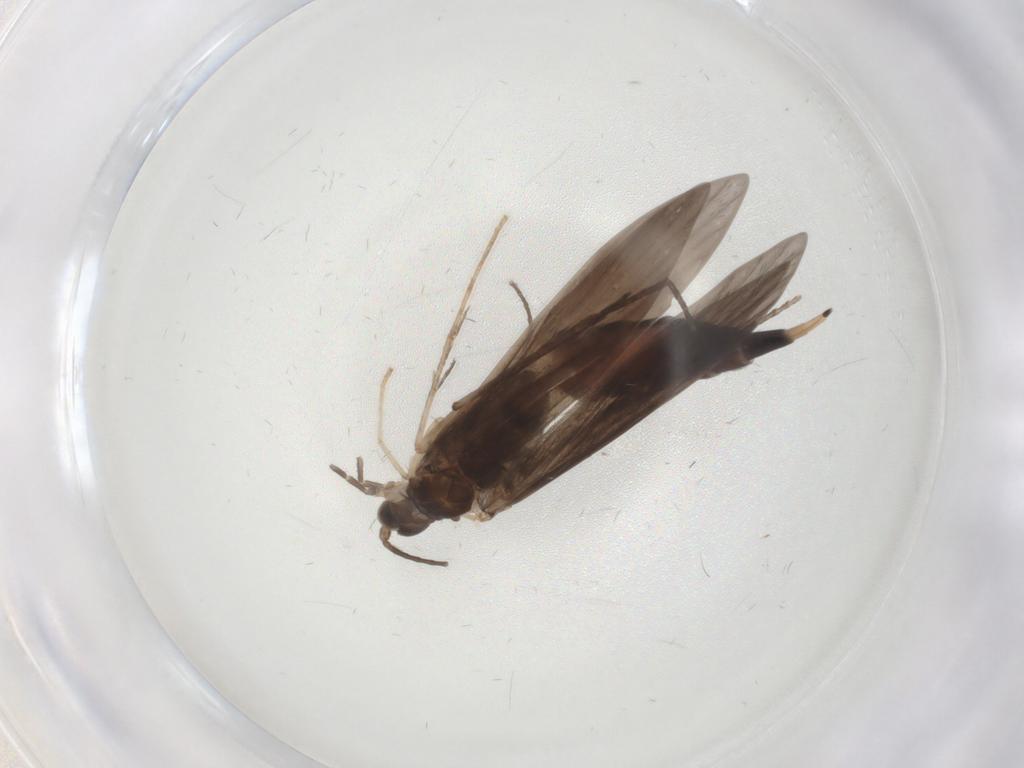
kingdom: Animalia
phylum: Arthropoda
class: Insecta
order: Trichoptera
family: Xiphocentronidae
